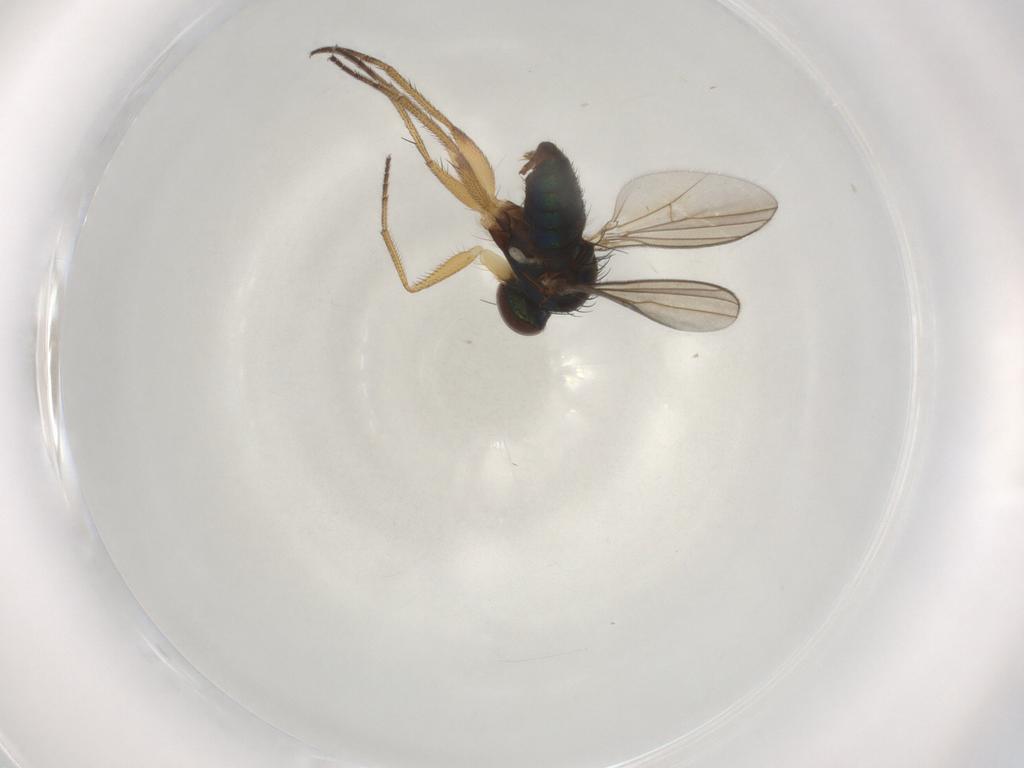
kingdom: Animalia
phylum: Arthropoda
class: Insecta
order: Diptera
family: Chironomidae
